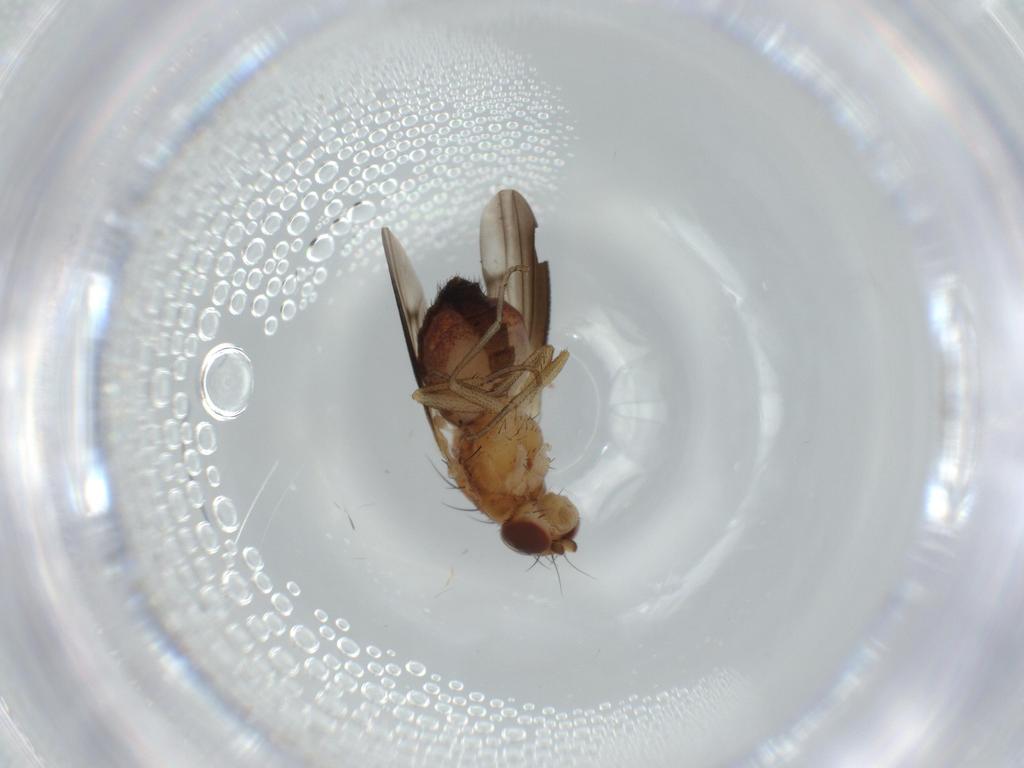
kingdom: Animalia
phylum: Arthropoda
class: Insecta
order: Diptera
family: Heleomyzidae
